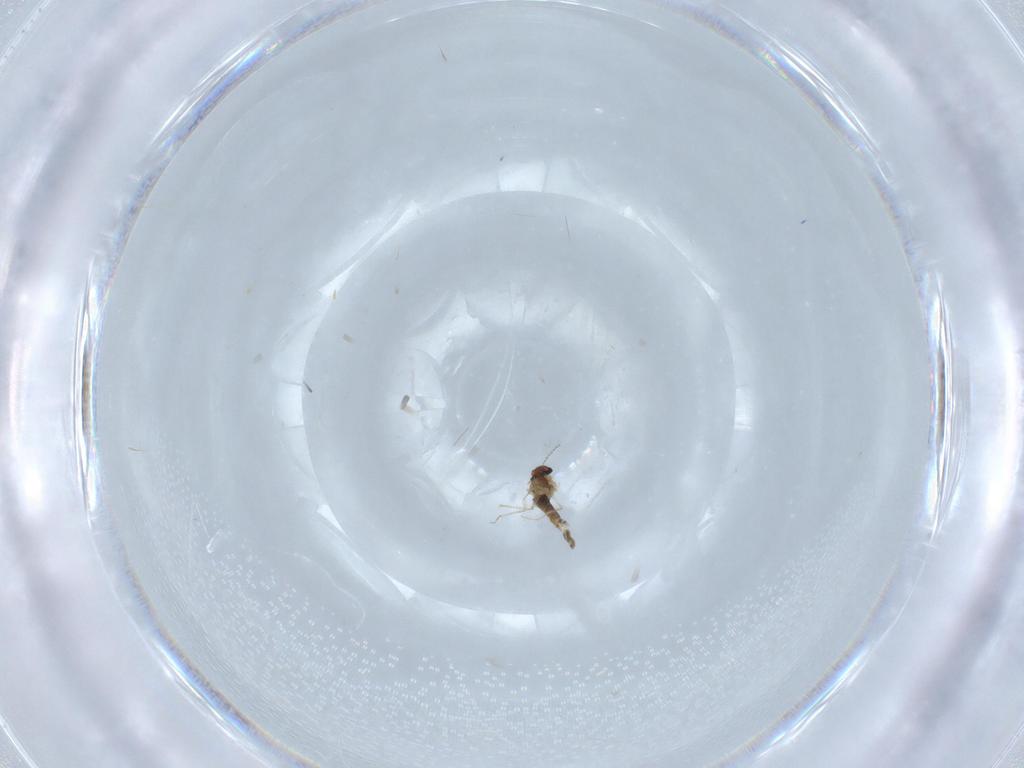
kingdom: Animalia
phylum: Arthropoda
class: Insecta
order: Diptera
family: Chironomidae
